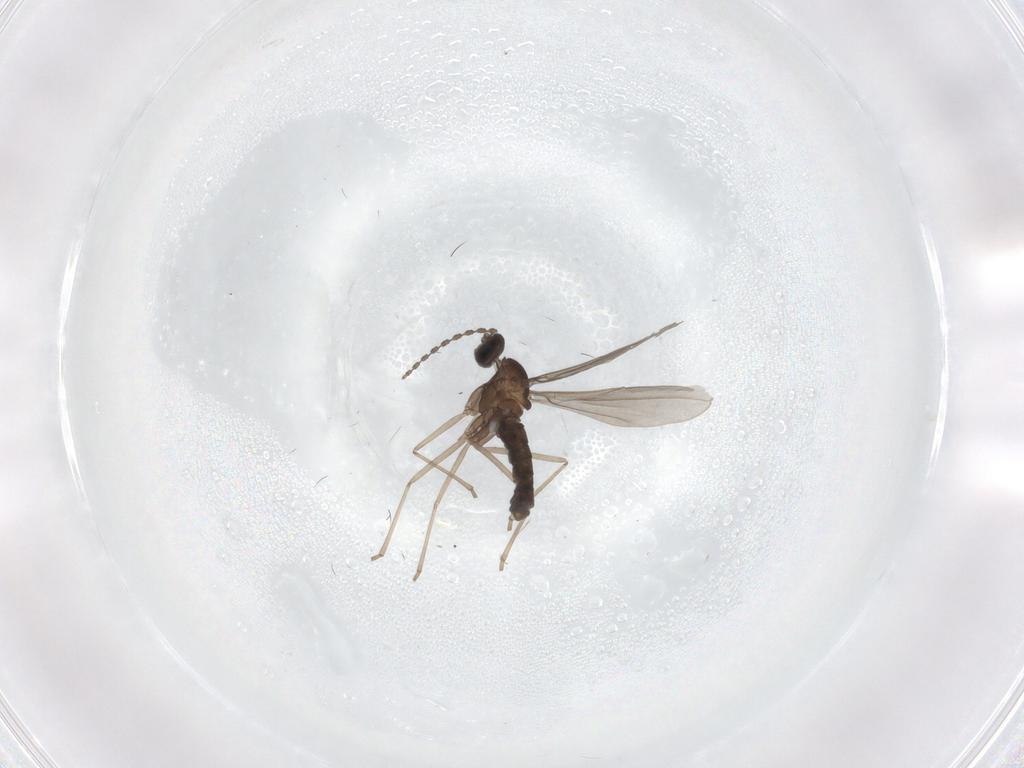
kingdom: Animalia
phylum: Arthropoda
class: Insecta
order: Diptera
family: Cecidomyiidae
